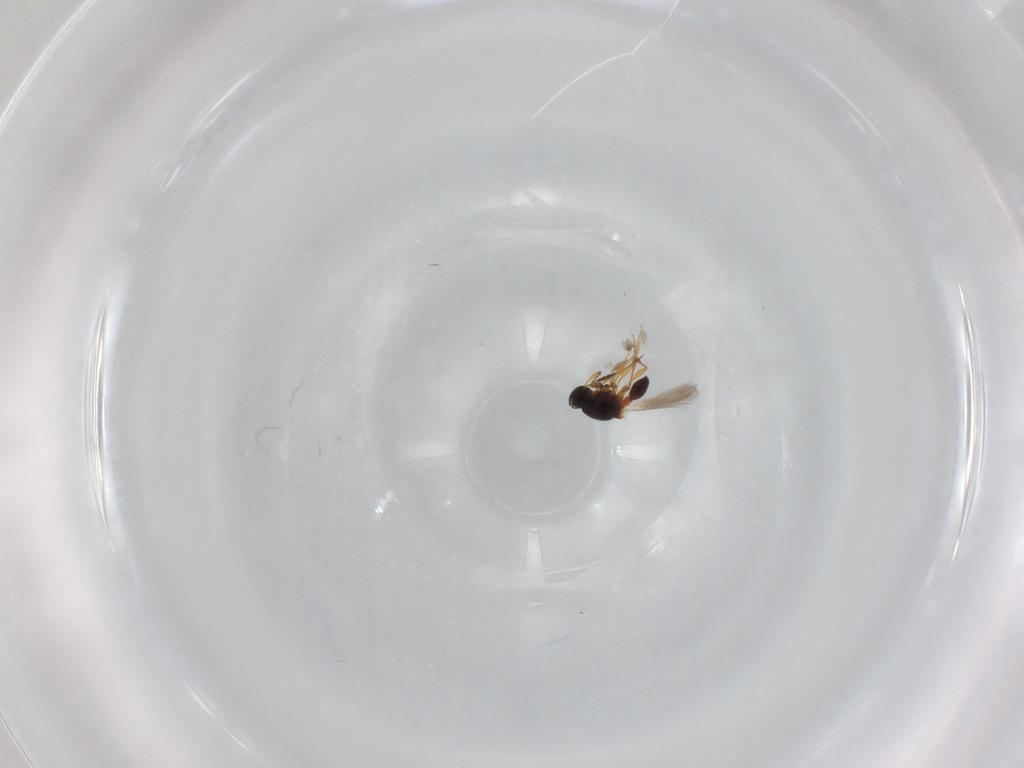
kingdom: Animalia
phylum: Arthropoda
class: Insecta
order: Hymenoptera
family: Platygastridae
